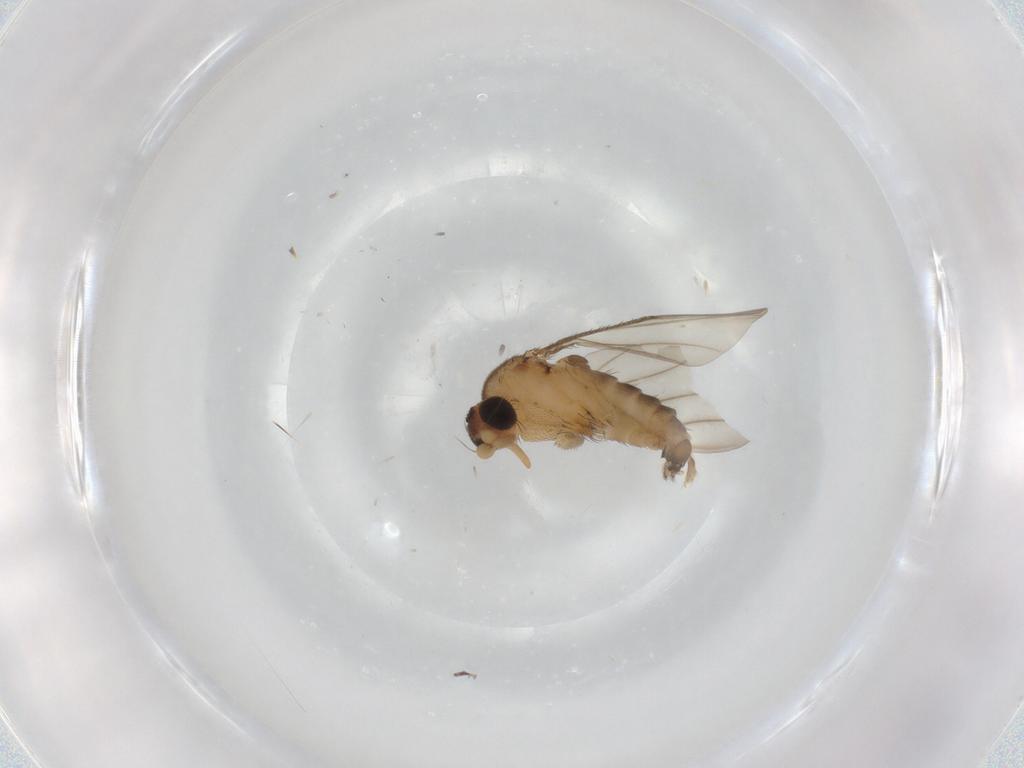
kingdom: Animalia
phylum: Arthropoda
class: Insecta
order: Diptera
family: Phoridae
